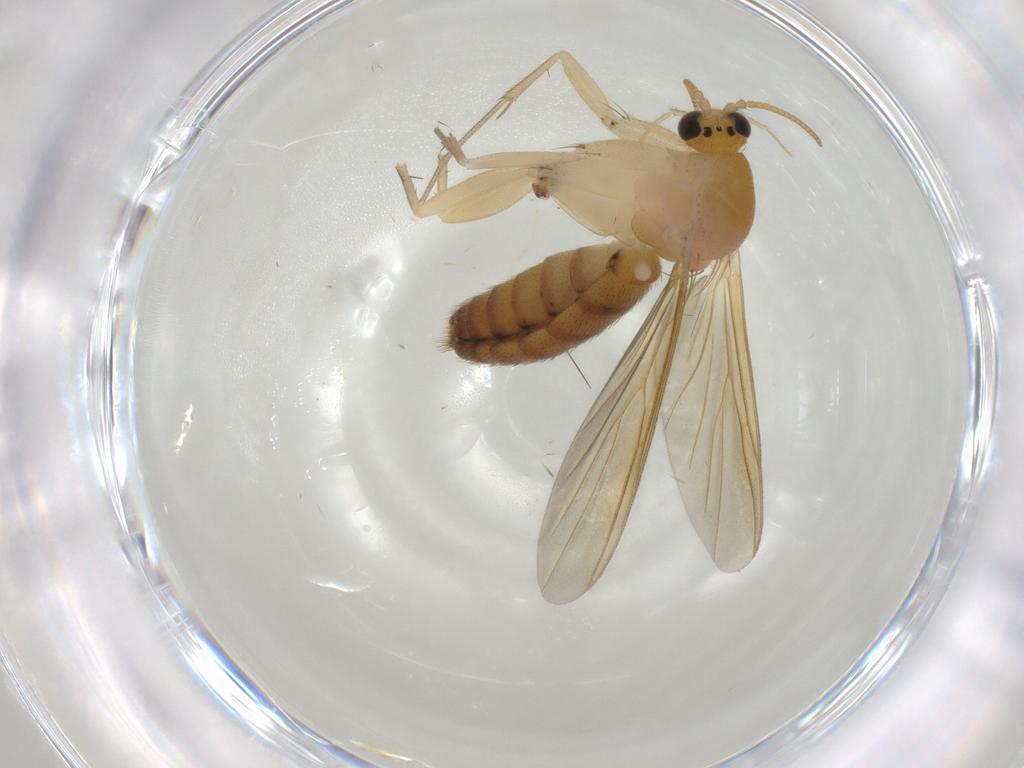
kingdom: Animalia
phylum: Arthropoda
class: Insecta
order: Diptera
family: Mycetophilidae
